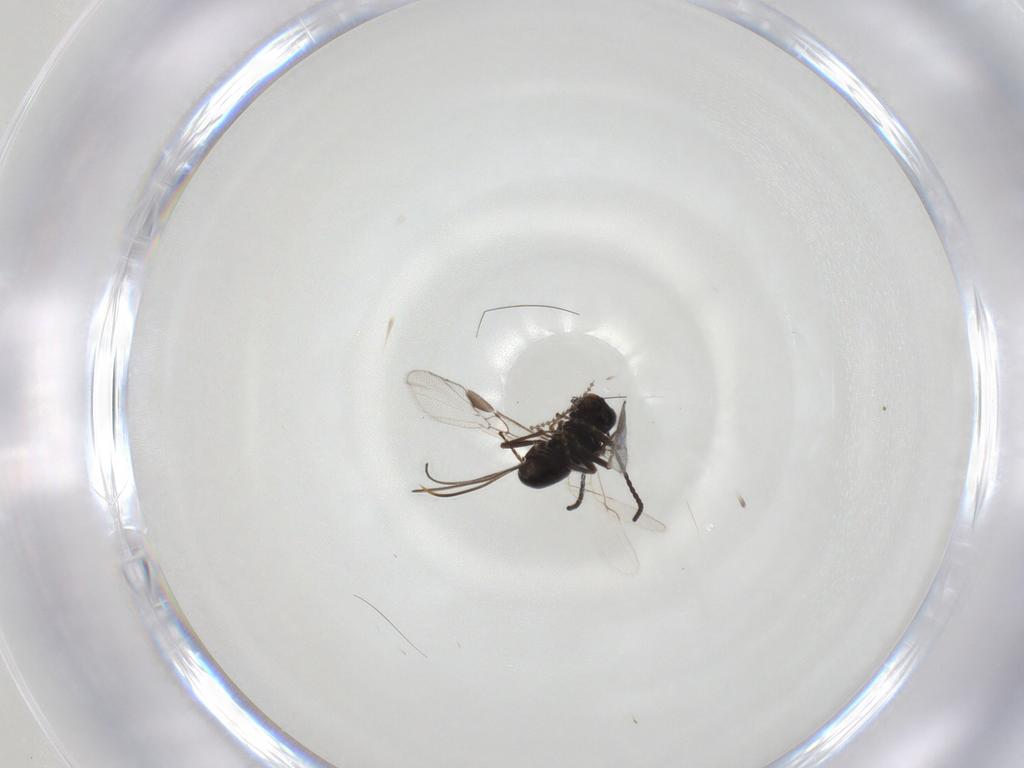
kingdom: Animalia
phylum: Arthropoda
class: Insecta
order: Hymenoptera
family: Braconidae
